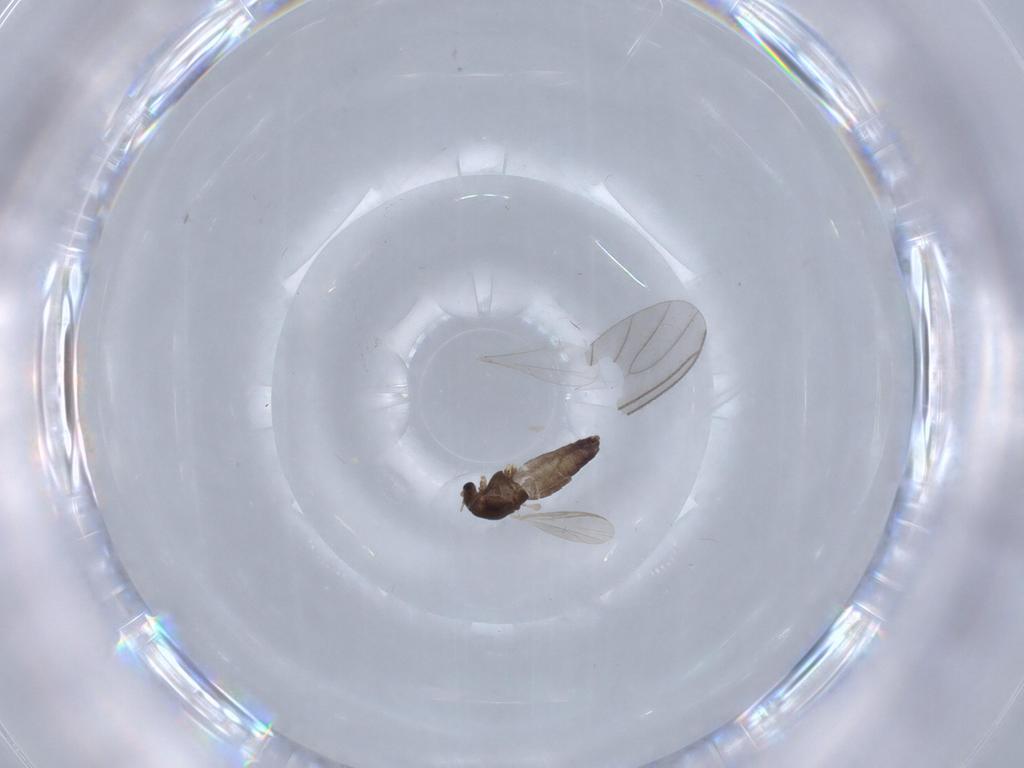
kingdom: Animalia
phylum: Arthropoda
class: Insecta
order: Diptera
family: Chironomidae
